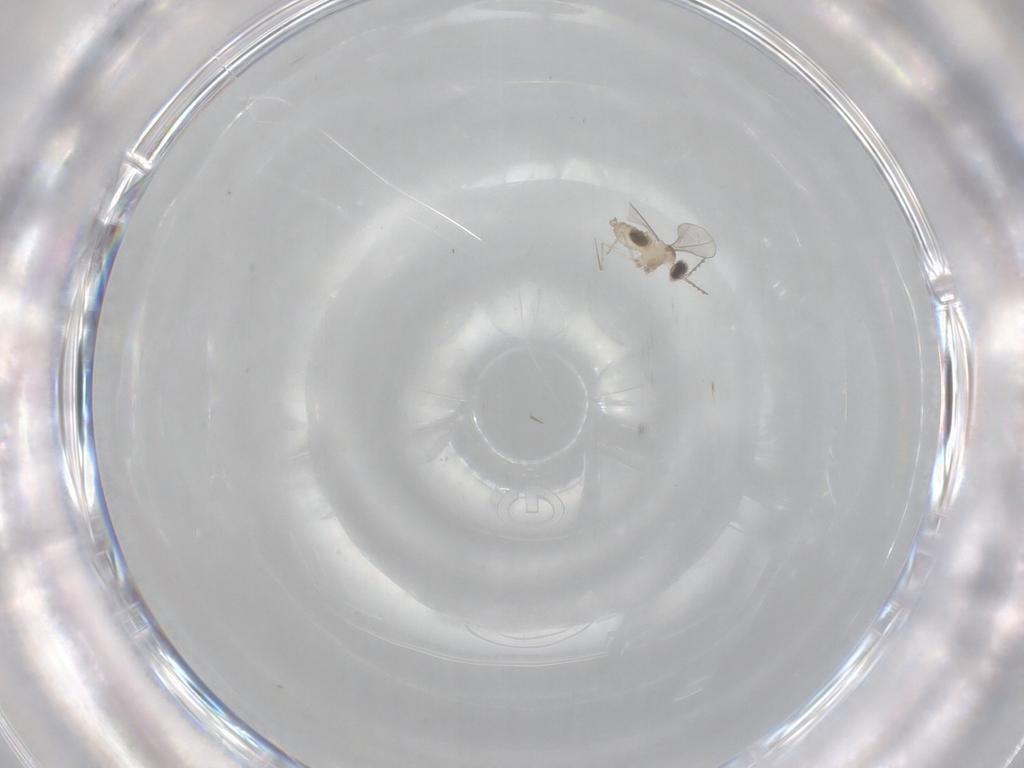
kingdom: Animalia
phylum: Arthropoda
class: Insecta
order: Diptera
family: Cecidomyiidae
